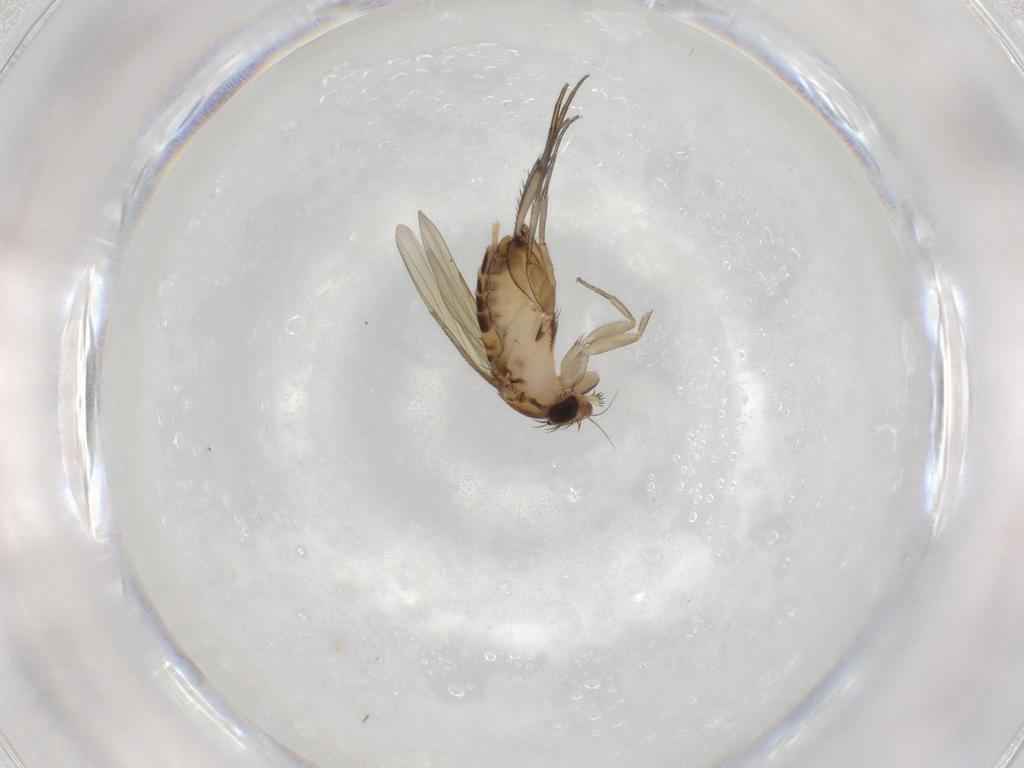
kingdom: Animalia
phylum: Arthropoda
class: Insecta
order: Diptera
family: Phoridae
